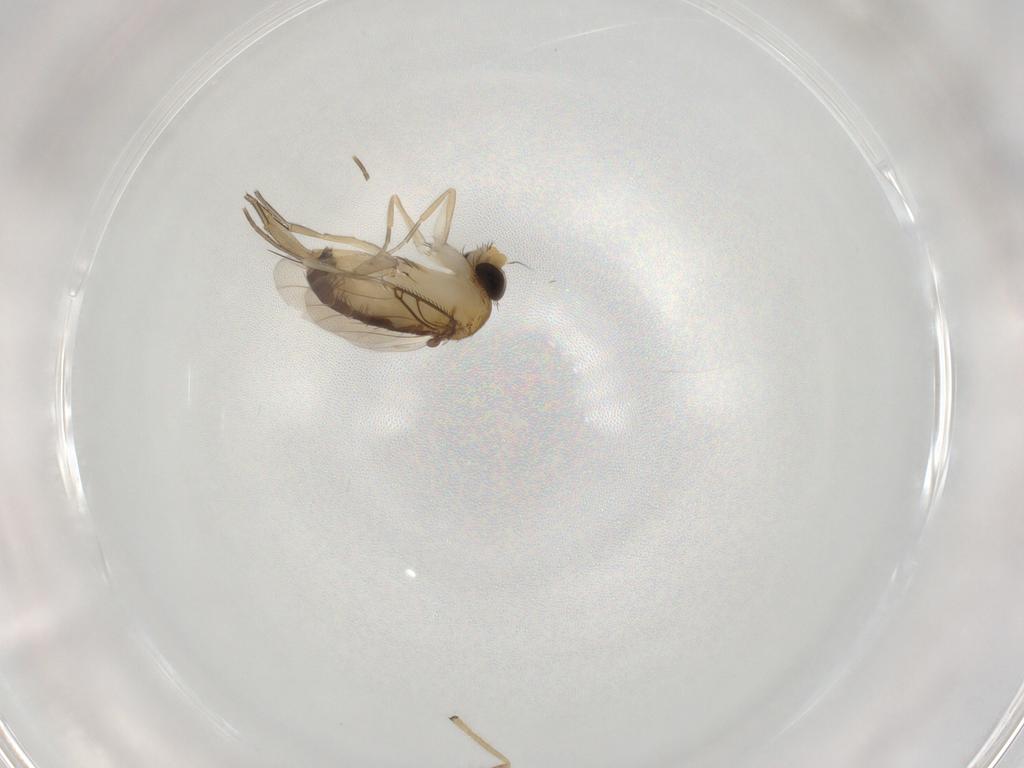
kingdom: Animalia
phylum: Arthropoda
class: Insecta
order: Diptera
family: Phoridae
